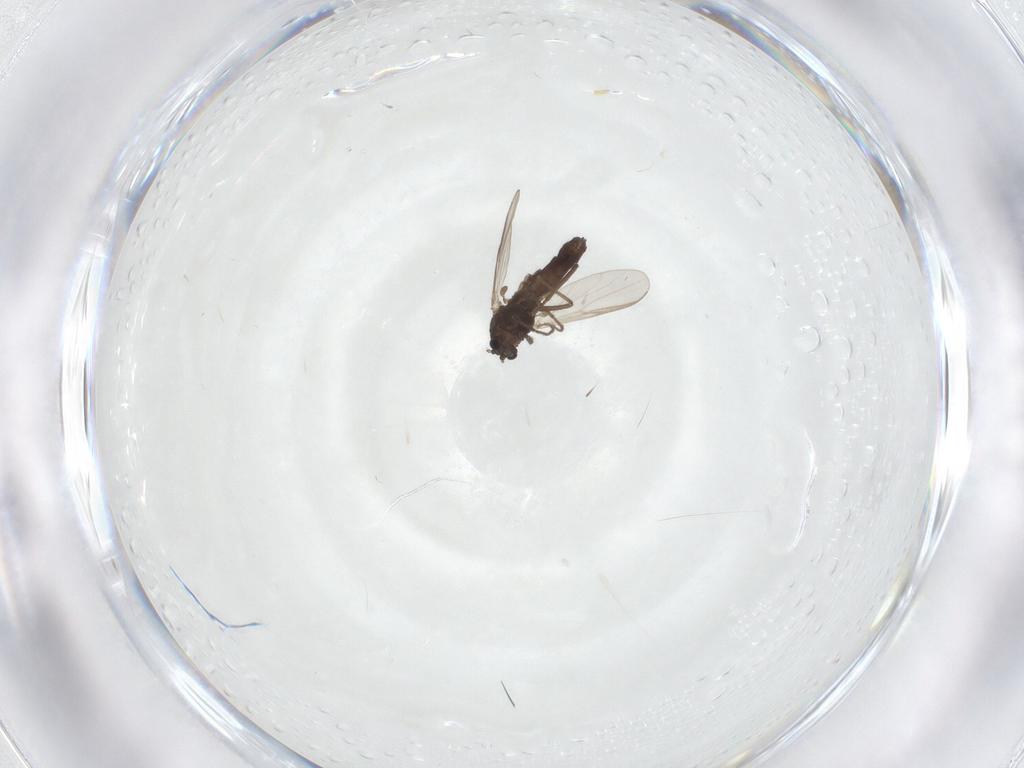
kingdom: Animalia
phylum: Arthropoda
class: Insecta
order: Diptera
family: Chironomidae
